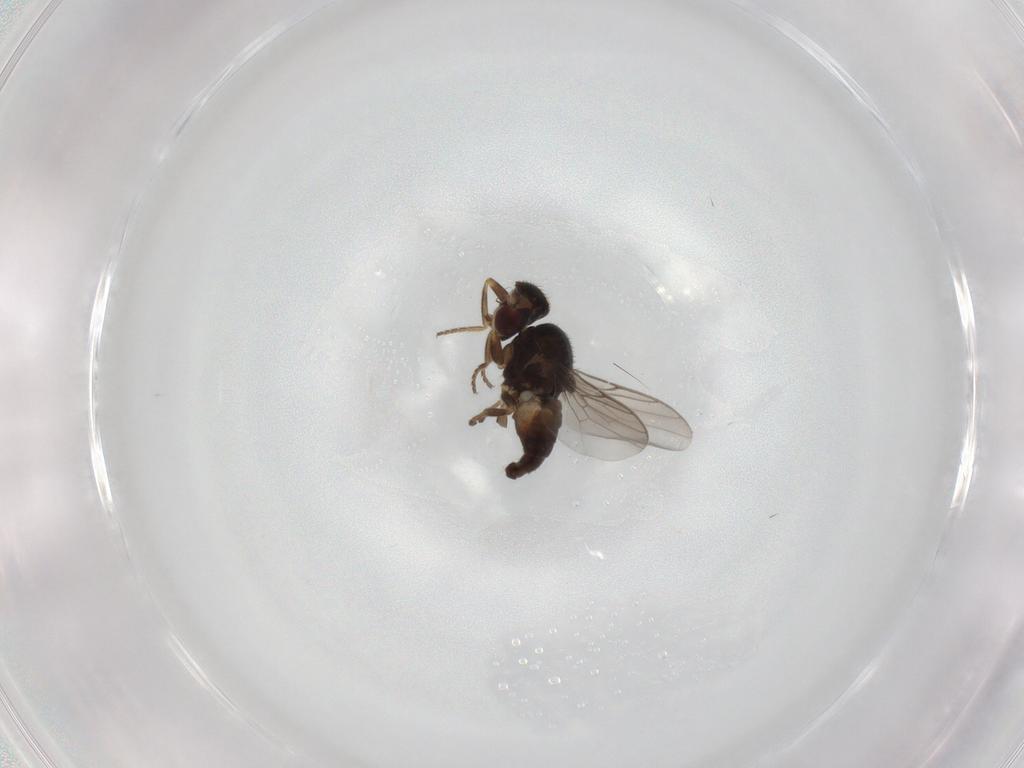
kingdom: Animalia
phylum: Arthropoda
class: Insecta
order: Diptera
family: Chloropidae
